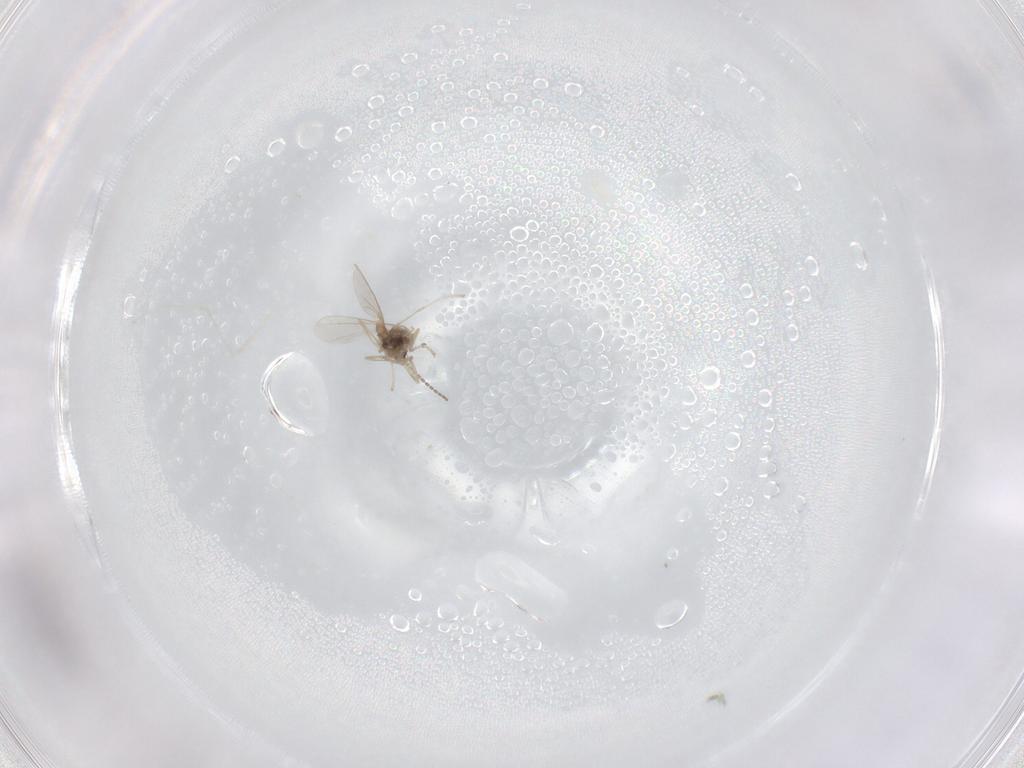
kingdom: Animalia
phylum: Arthropoda
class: Insecta
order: Diptera
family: Cecidomyiidae
